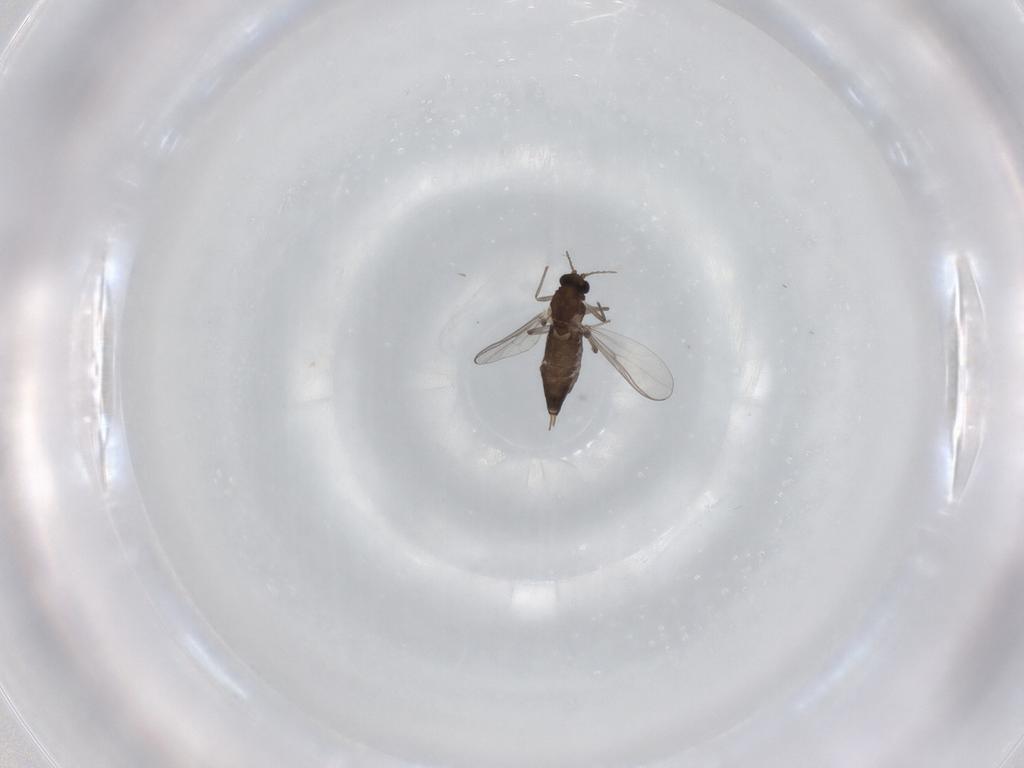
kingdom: Animalia
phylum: Arthropoda
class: Insecta
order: Diptera
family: Chironomidae
